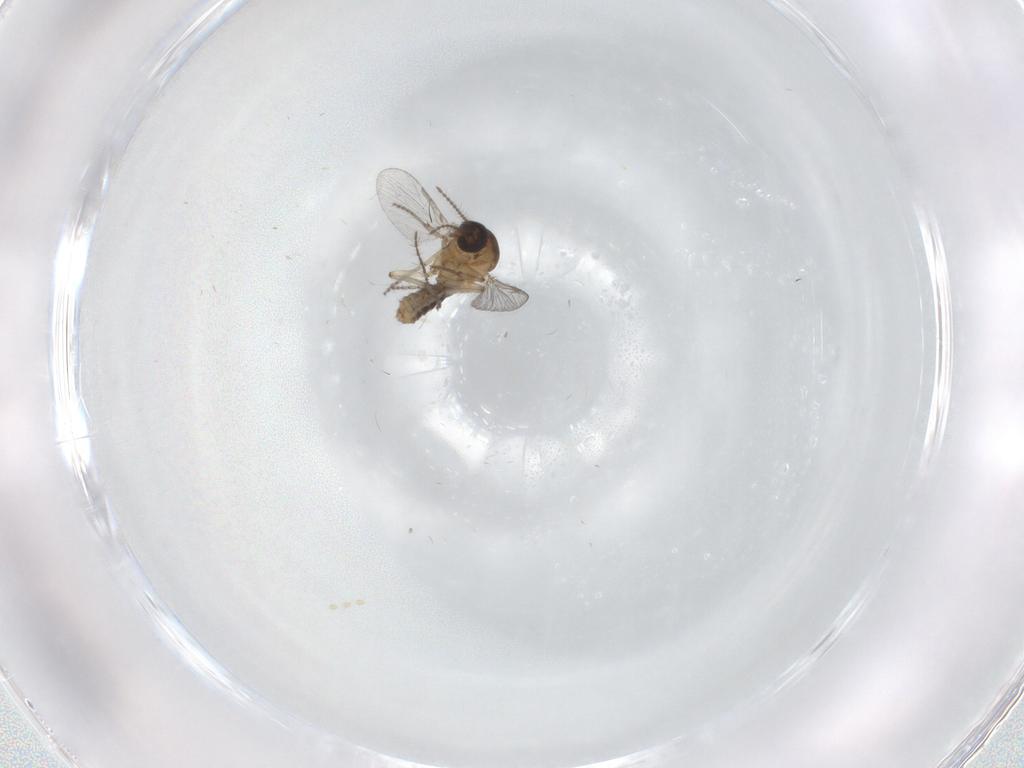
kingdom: Animalia
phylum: Arthropoda
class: Insecta
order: Diptera
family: Ceratopogonidae
